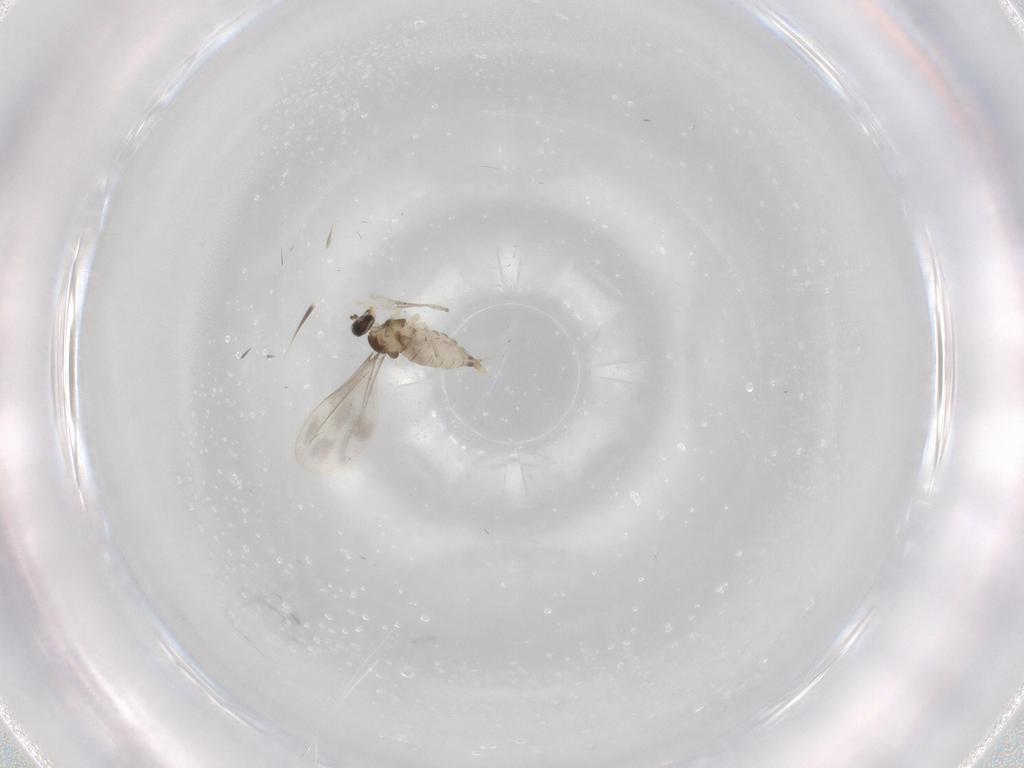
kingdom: Animalia
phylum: Arthropoda
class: Insecta
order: Diptera
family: Cecidomyiidae
